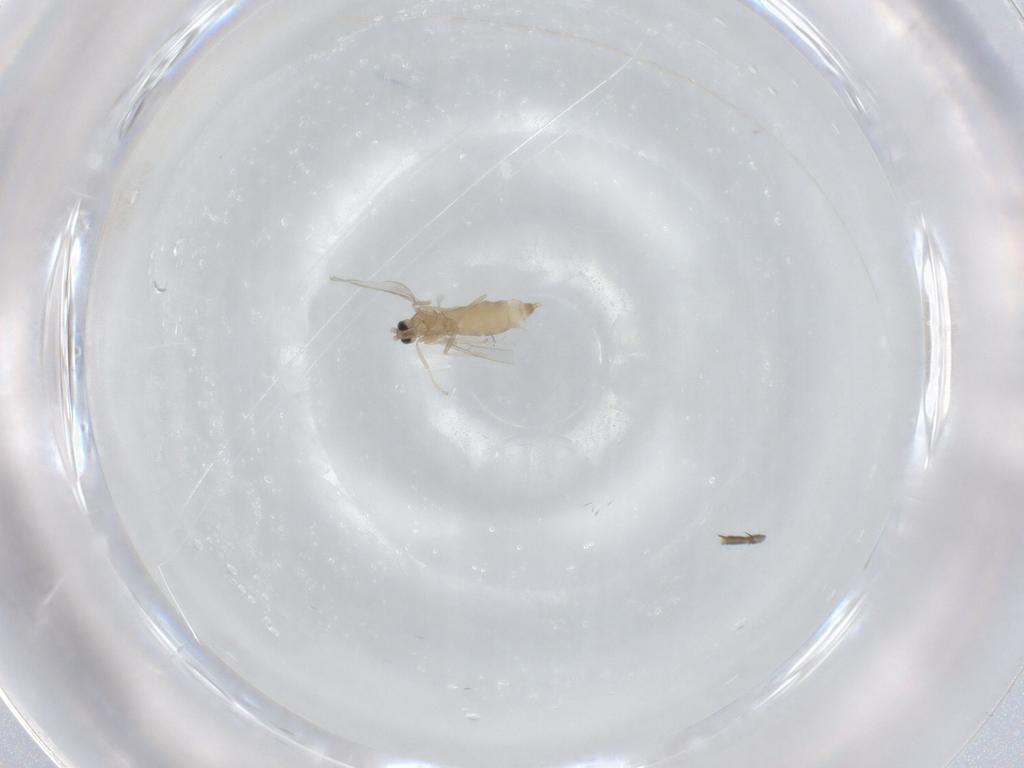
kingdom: Animalia
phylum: Arthropoda
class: Insecta
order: Diptera
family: Cecidomyiidae
